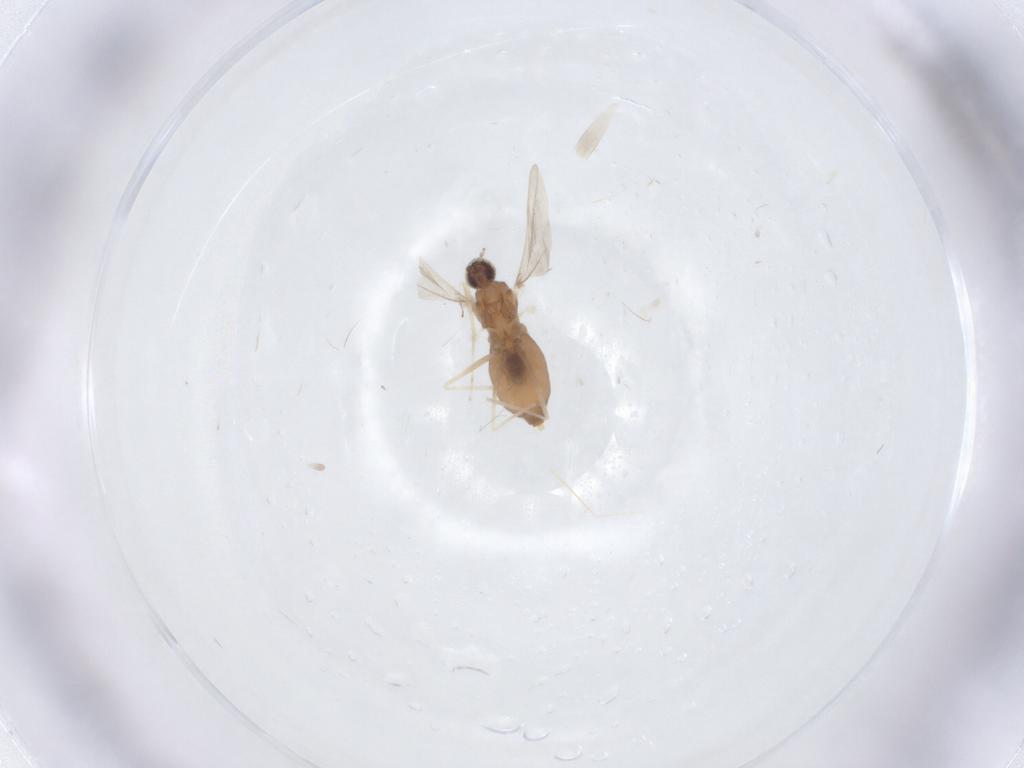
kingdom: Animalia
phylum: Arthropoda
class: Insecta
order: Diptera
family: Cecidomyiidae
